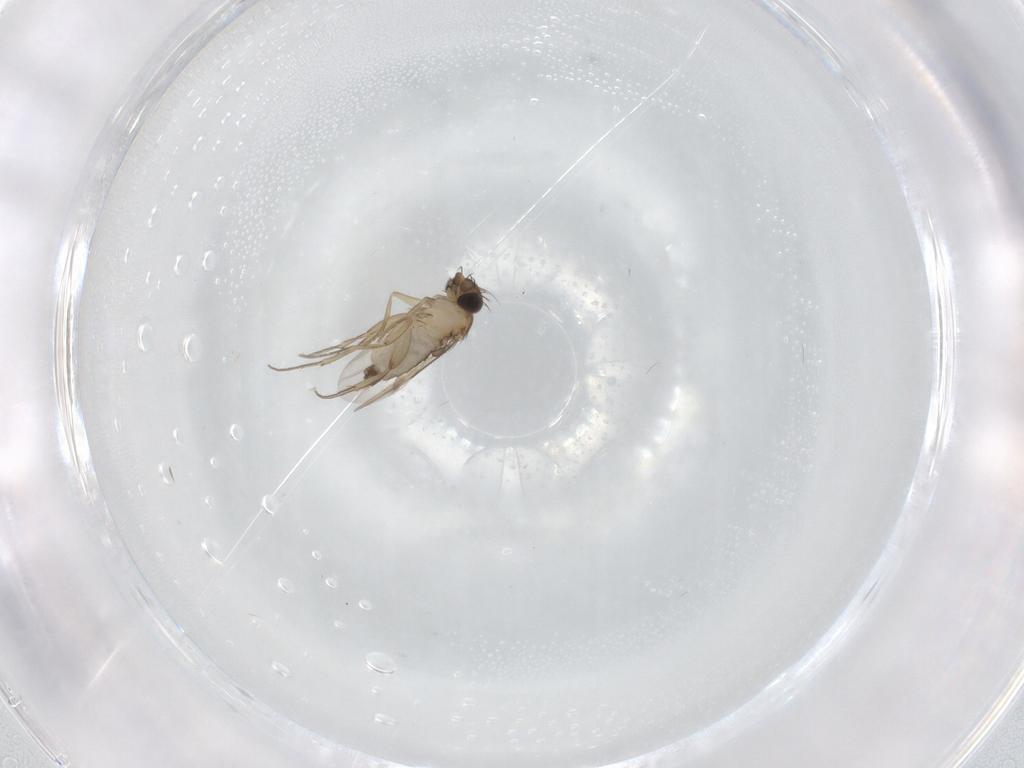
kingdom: Animalia
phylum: Arthropoda
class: Insecta
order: Diptera
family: Phoridae
